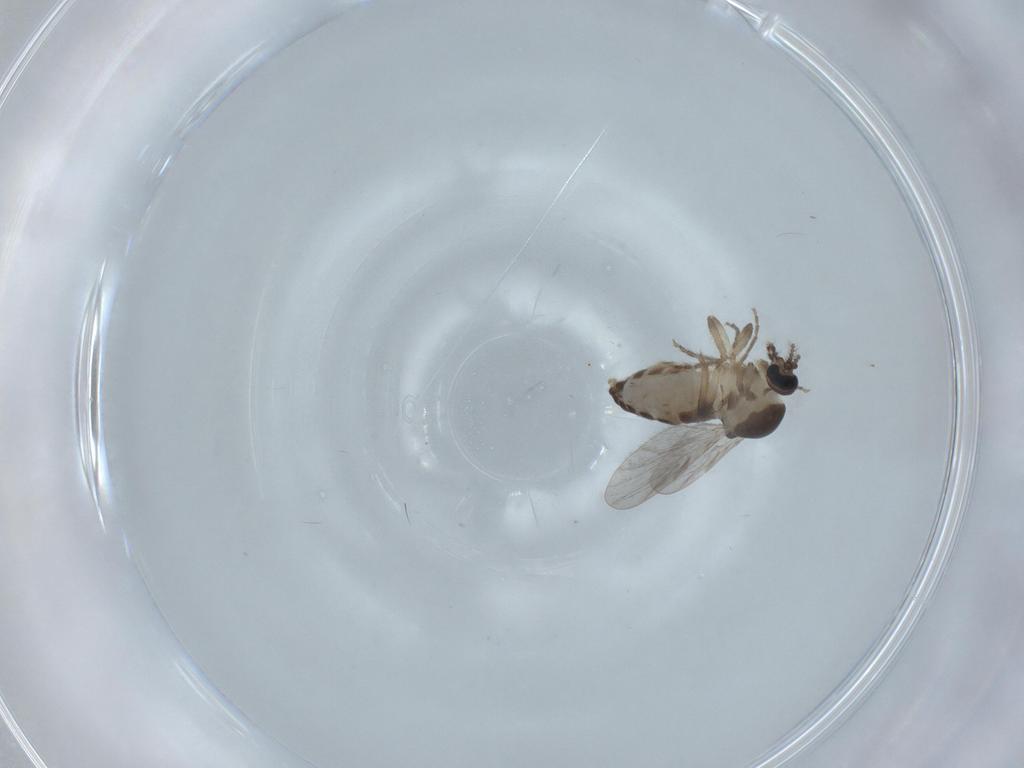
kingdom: Animalia
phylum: Arthropoda
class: Insecta
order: Diptera
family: Ceratopogonidae
